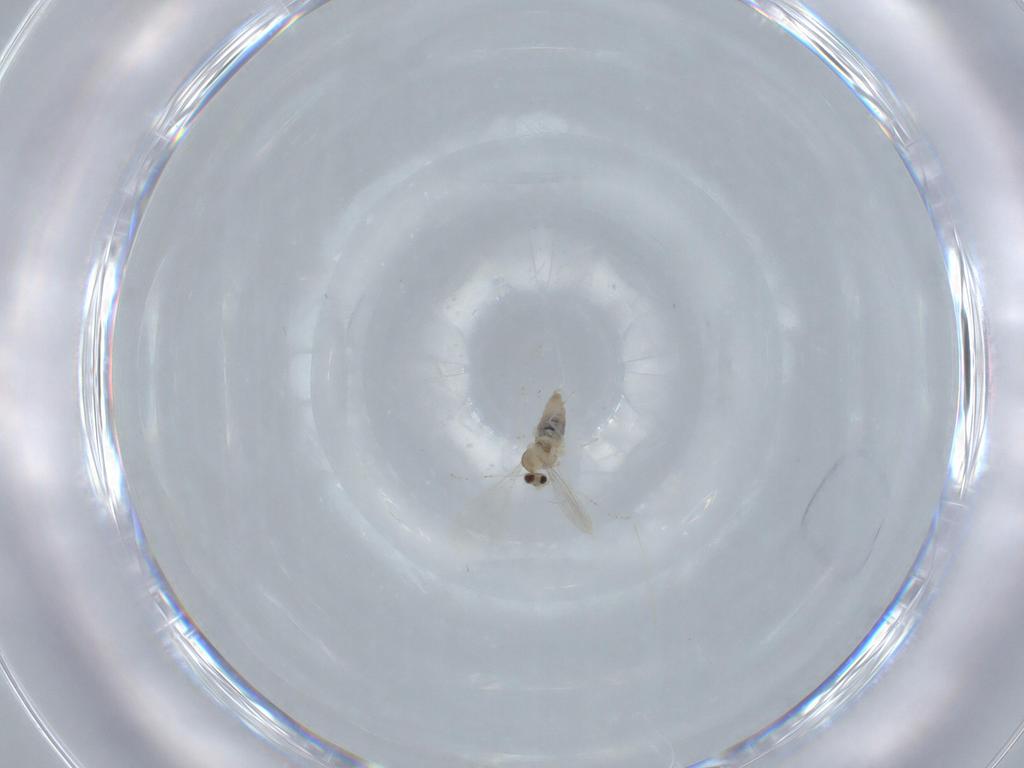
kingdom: Animalia
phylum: Arthropoda
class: Insecta
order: Diptera
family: Cecidomyiidae
